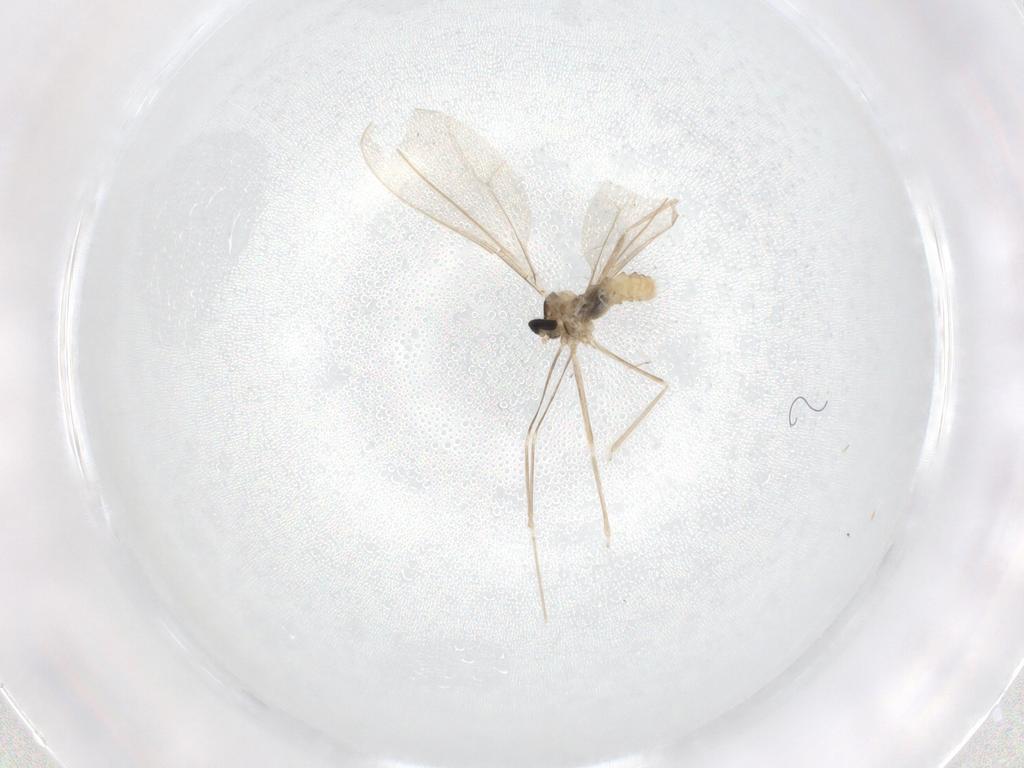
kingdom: Animalia
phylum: Arthropoda
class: Insecta
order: Diptera
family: Cecidomyiidae
